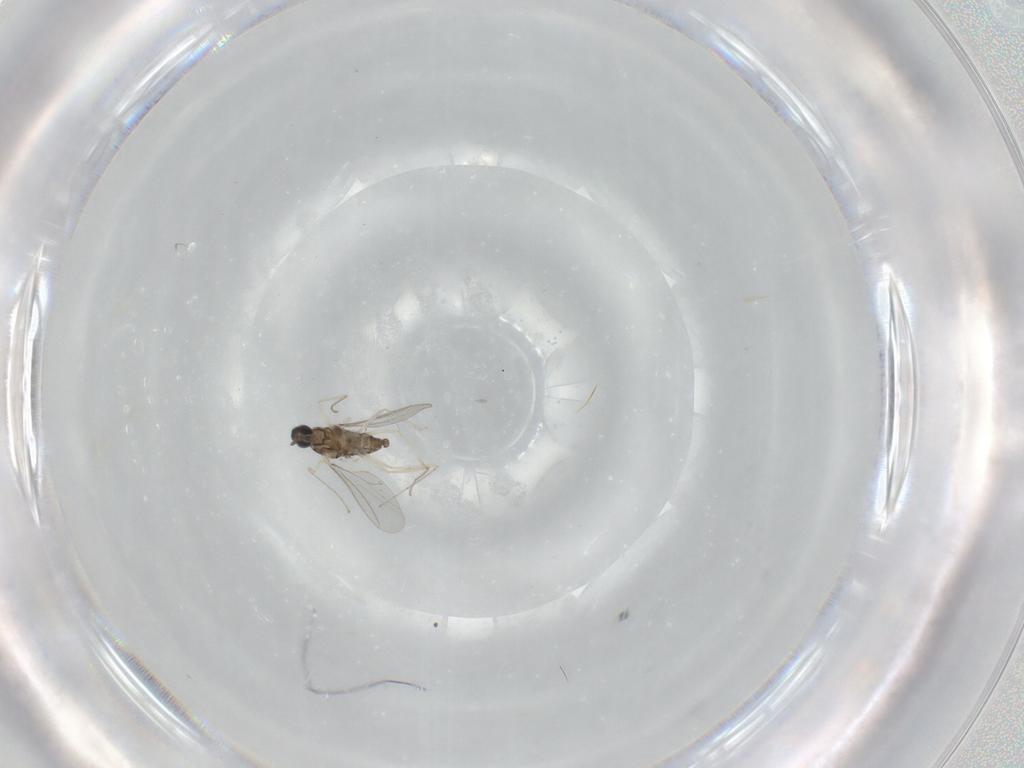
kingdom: Animalia
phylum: Arthropoda
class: Insecta
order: Diptera
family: Cecidomyiidae
